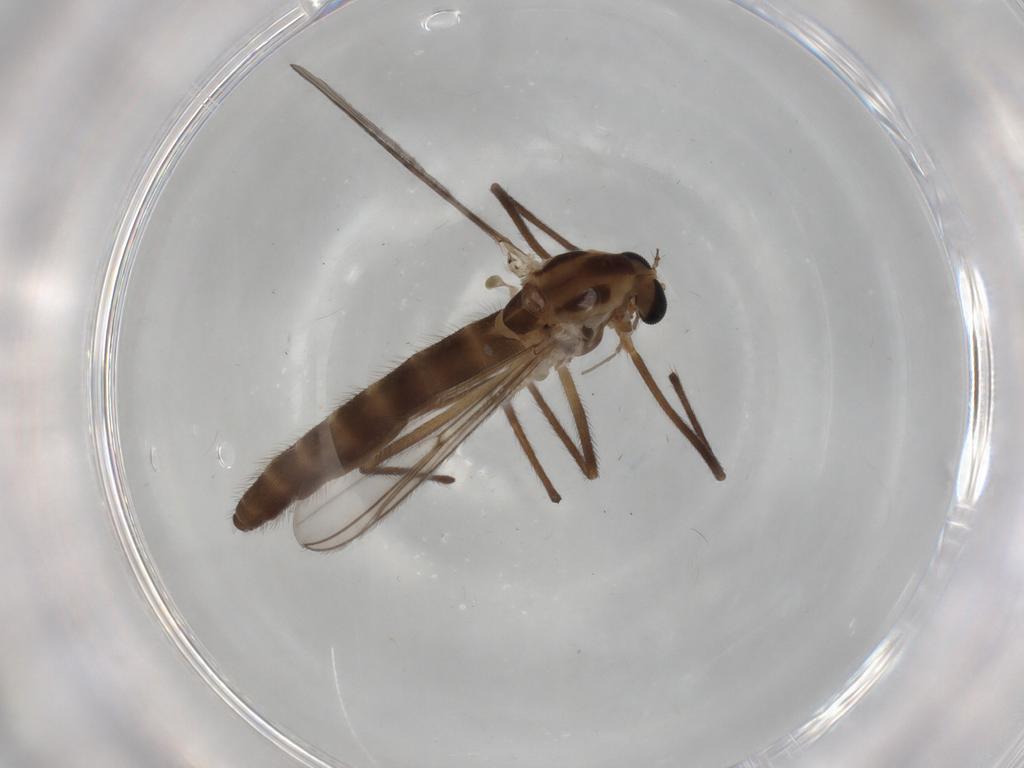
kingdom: Animalia
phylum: Arthropoda
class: Insecta
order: Diptera
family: Chironomidae
